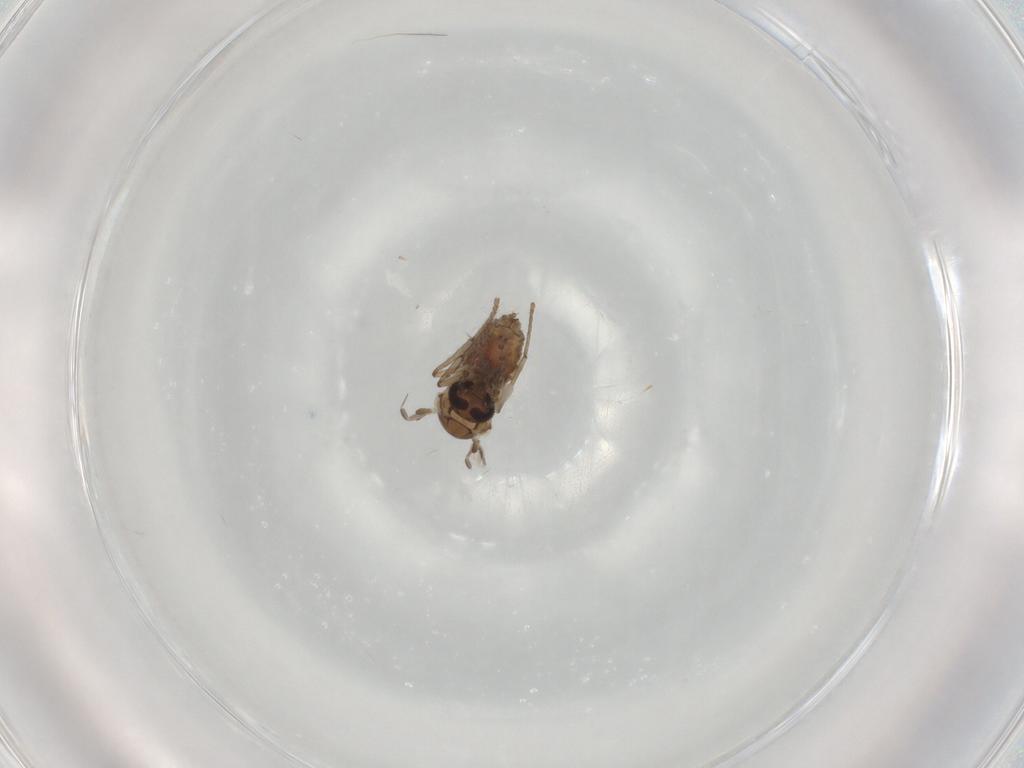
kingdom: Animalia
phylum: Arthropoda
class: Insecta
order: Diptera
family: Psychodidae
